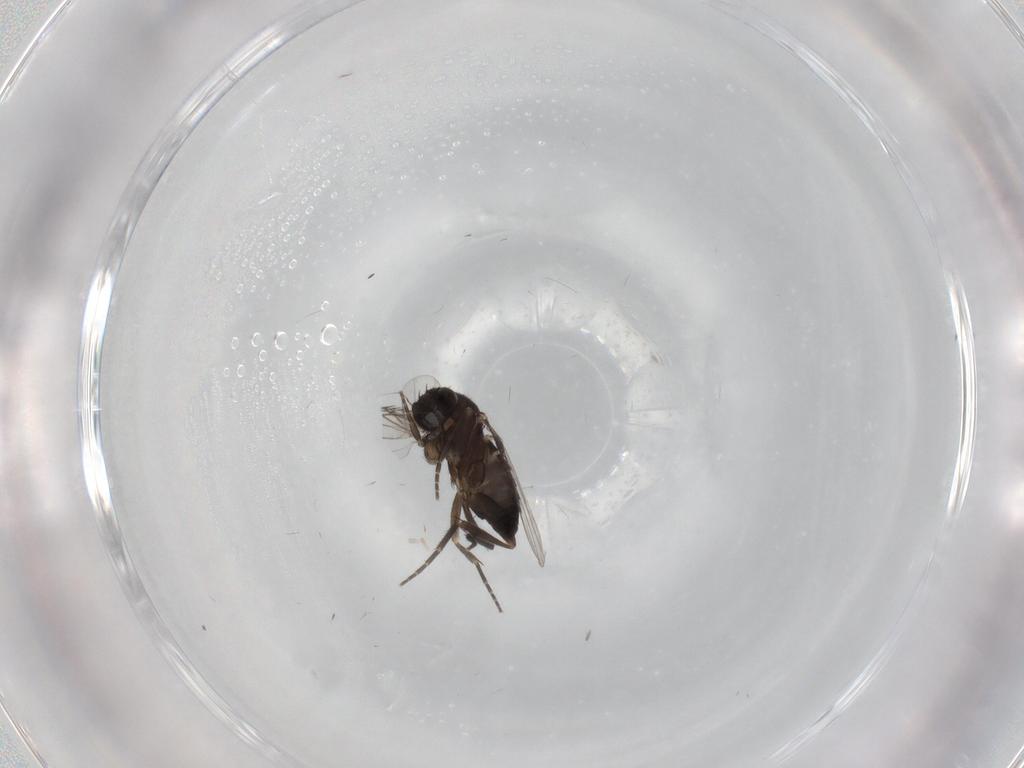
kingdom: Animalia
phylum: Arthropoda
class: Insecta
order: Diptera
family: Phoridae
